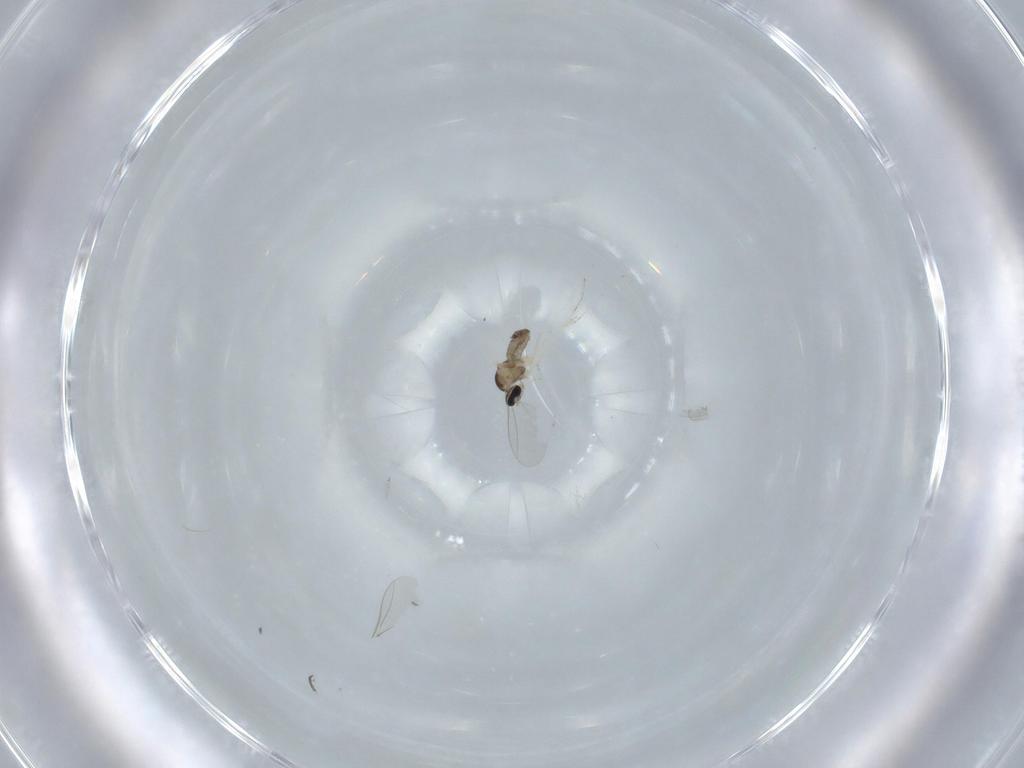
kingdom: Animalia
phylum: Arthropoda
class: Insecta
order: Diptera
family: Cecidomyiidae
